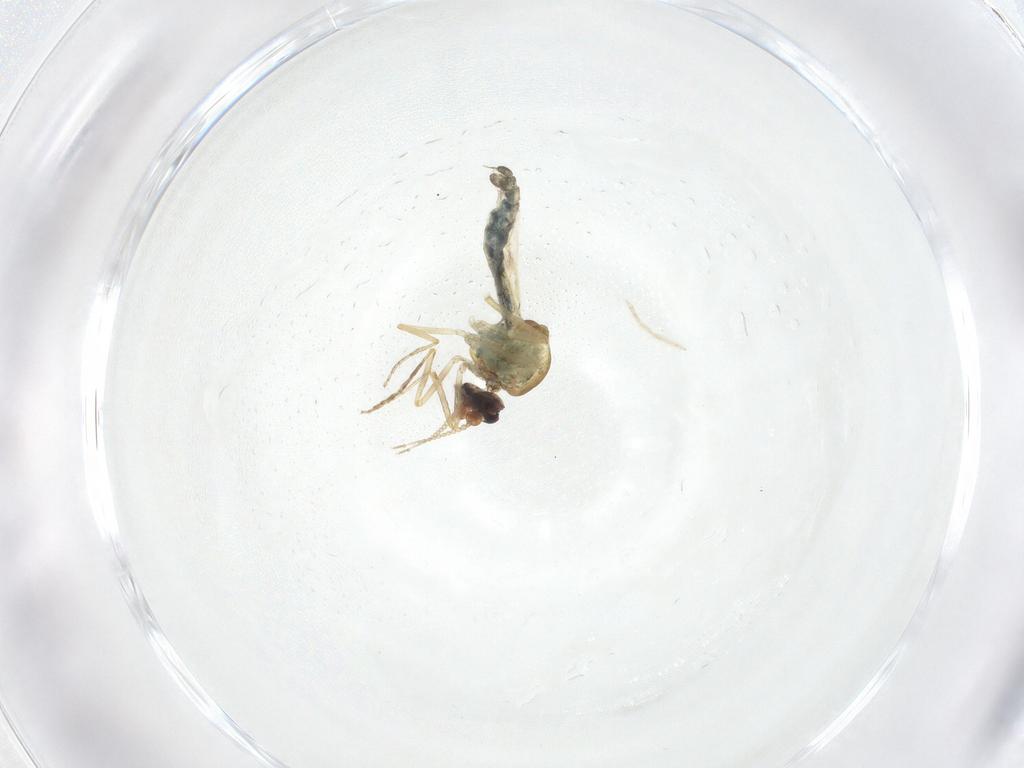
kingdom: Animalia
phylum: Arthropoda
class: Insecta
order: Diptera
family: Ceratopogonidae
